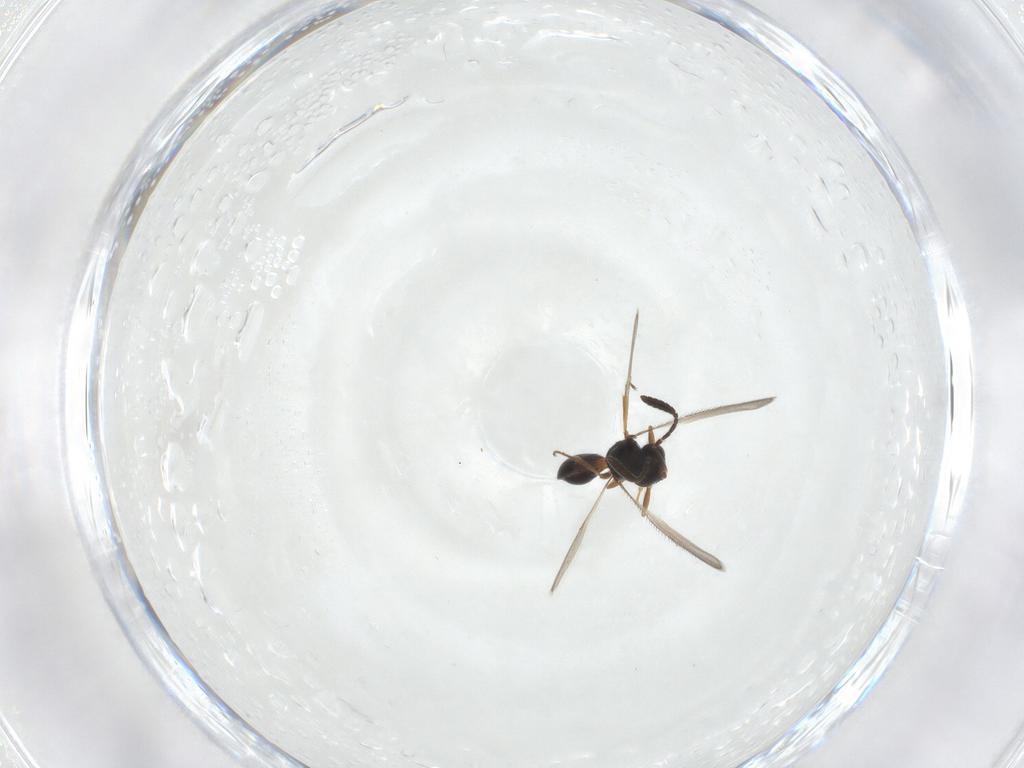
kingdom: Animalia
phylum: Arthropoda
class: Insecta
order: Hymenoptera
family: Scelionidae
